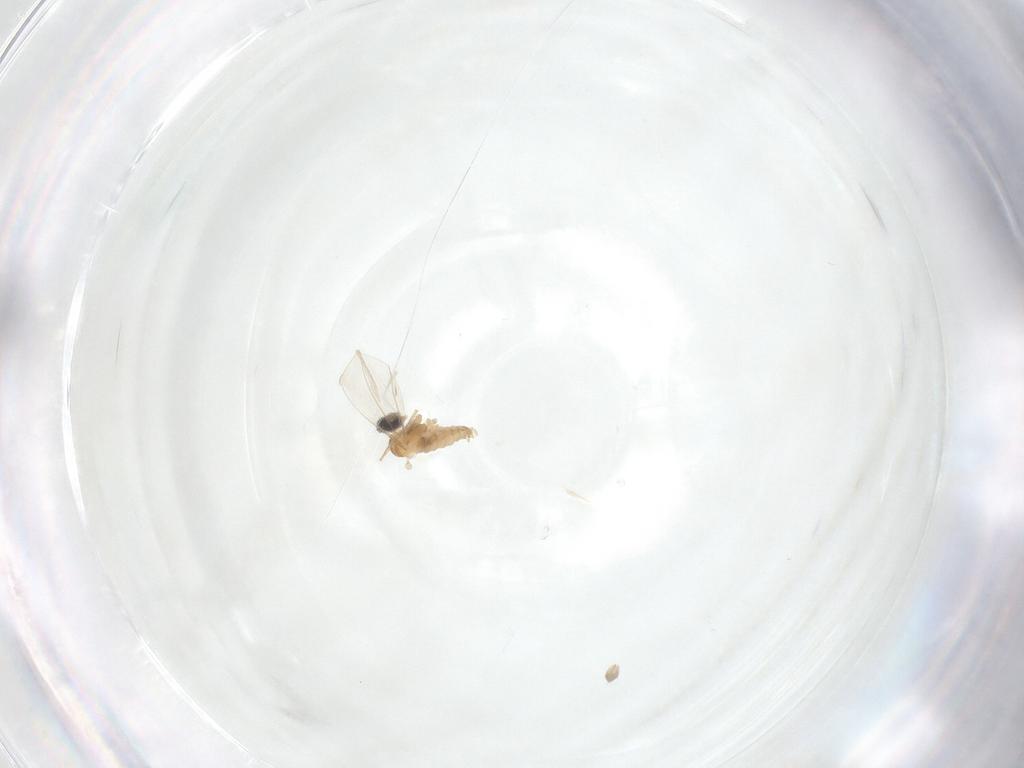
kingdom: Animalia
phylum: Arthropoda
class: Insecta
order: Diptera
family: Cecidomyiidae
